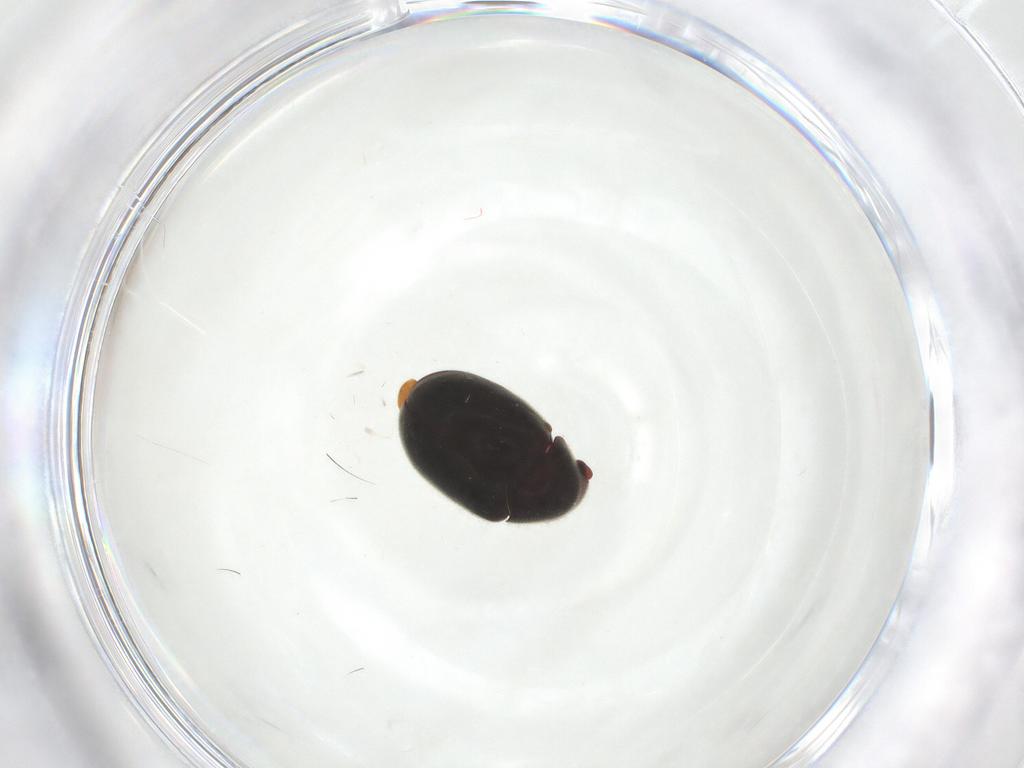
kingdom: Animalia
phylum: Arthropoda
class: Insecta
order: Coleoptera
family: Ptinidae
